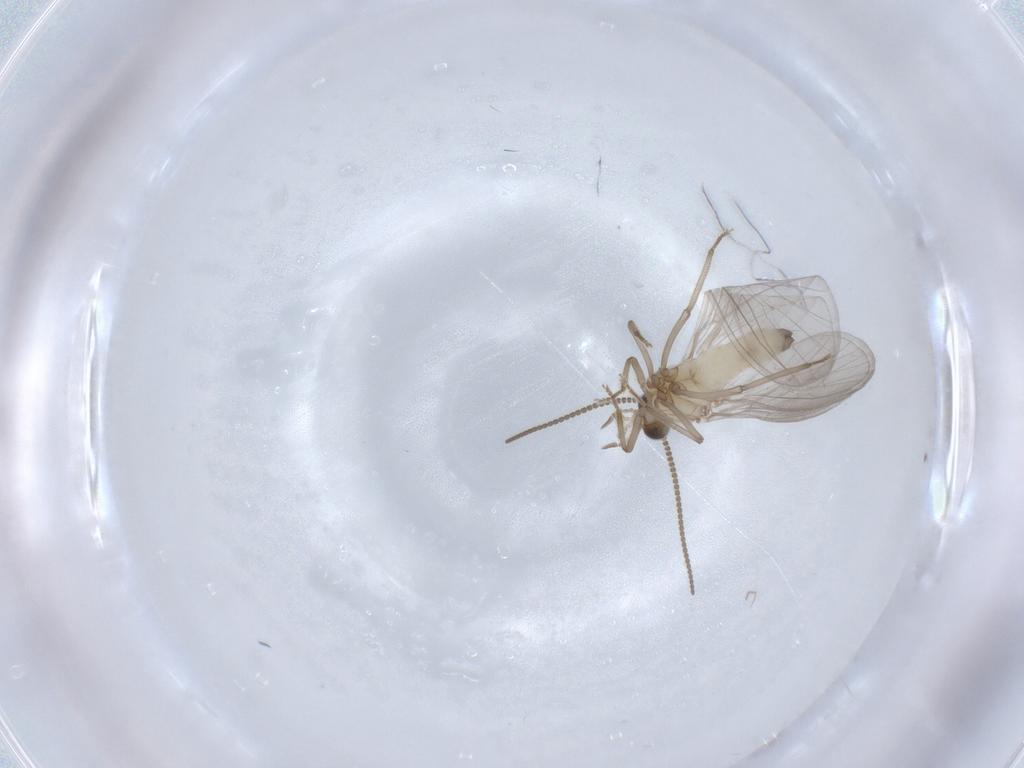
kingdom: Animalia
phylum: Arthropoda
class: Insecta
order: Neuroptera
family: Coniopterygidae
